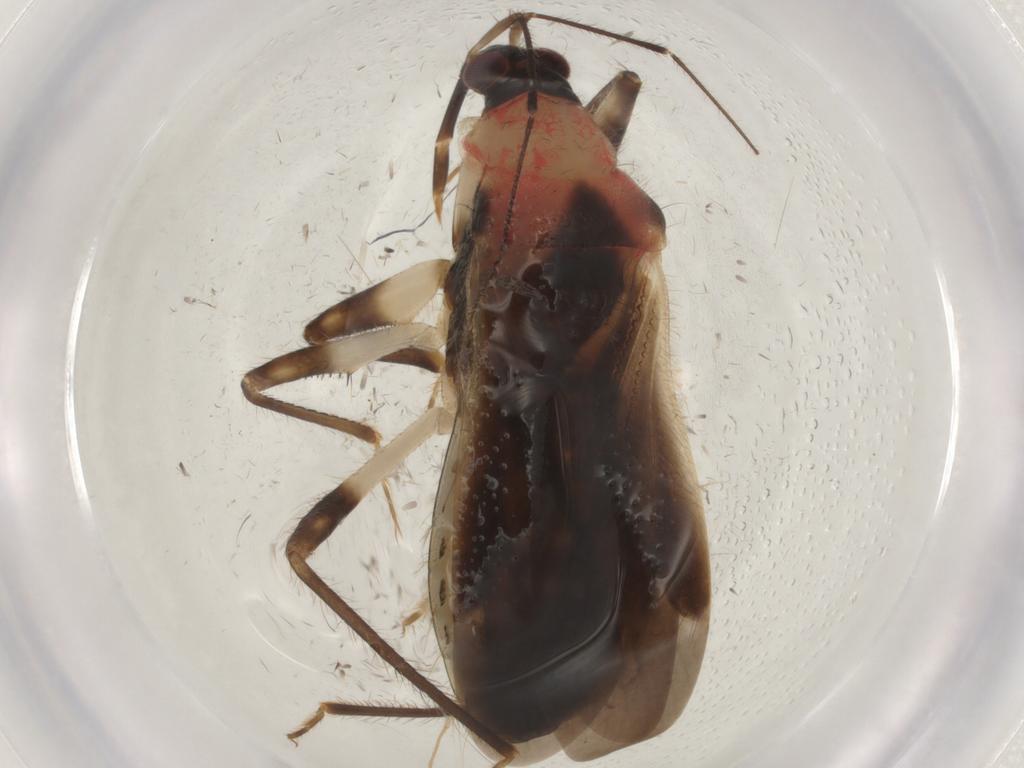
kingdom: Animalia
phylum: Arthropoda
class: Insecta
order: Hemiptera
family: Nabidae
